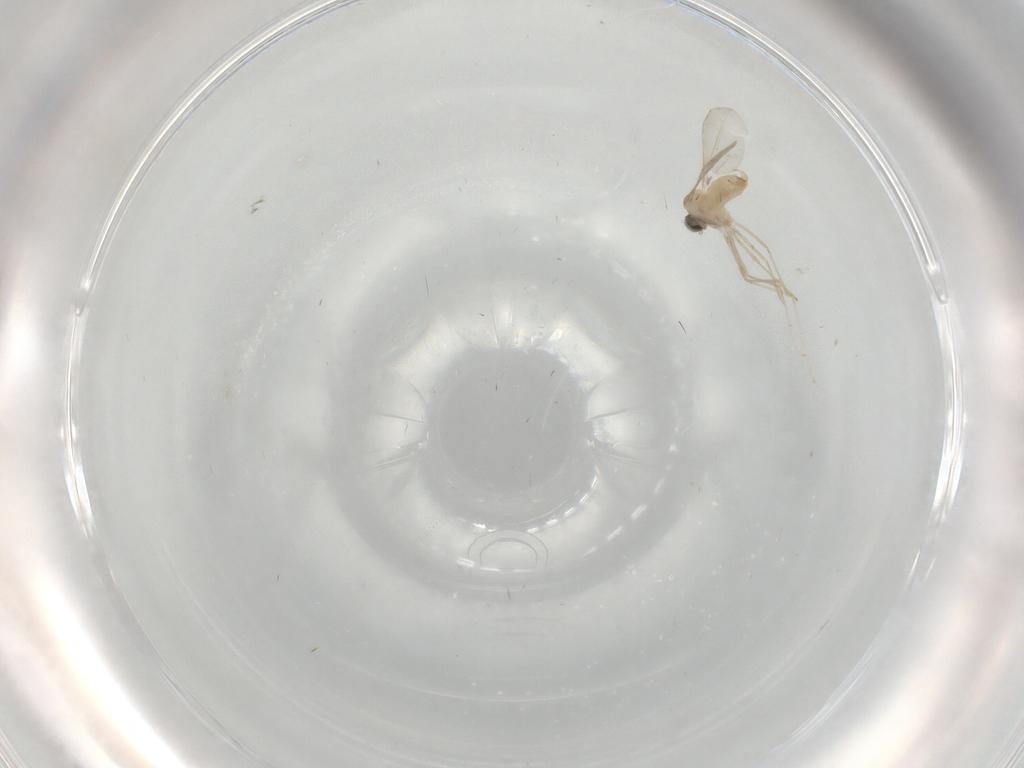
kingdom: Animalia
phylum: Arthropoda
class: Insecta
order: Diptera
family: Cecidomyiidae
